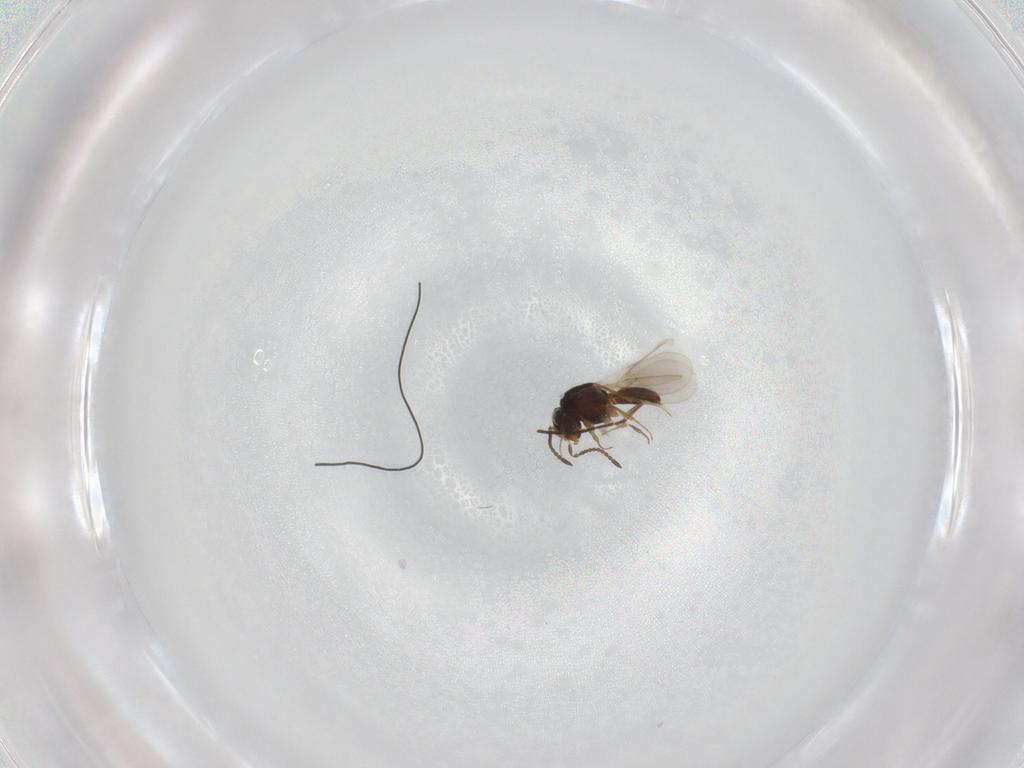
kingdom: Animalia
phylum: Arthropoda
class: Insecta
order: Hymenoptera
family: Scelionidae
